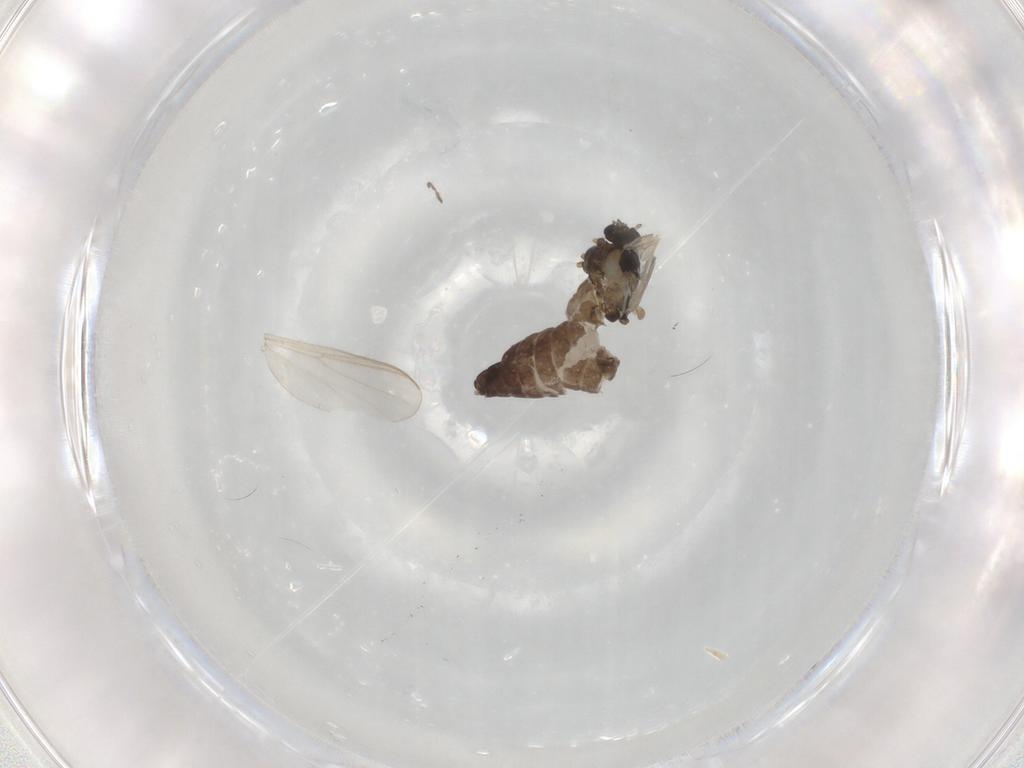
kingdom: Animalia
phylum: Arthropoda
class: Insecta
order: Diptera
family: Chironomidae
